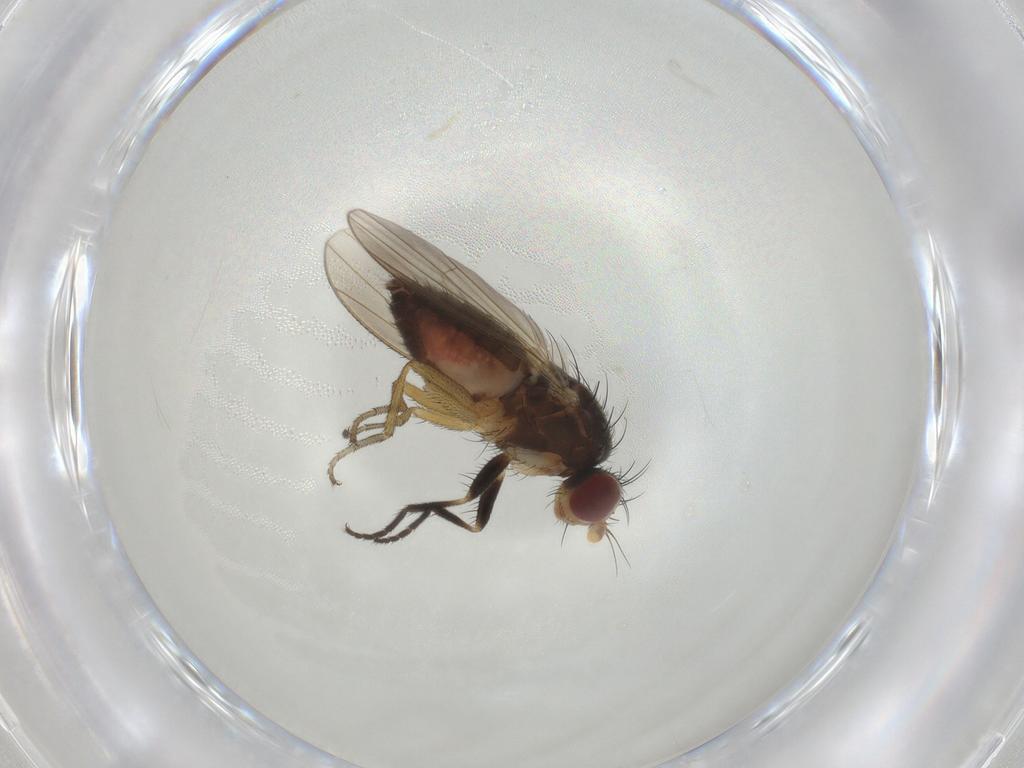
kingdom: Animalia
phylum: Arthropoda
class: Insecta
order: Diptera
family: Heleomyzidae
